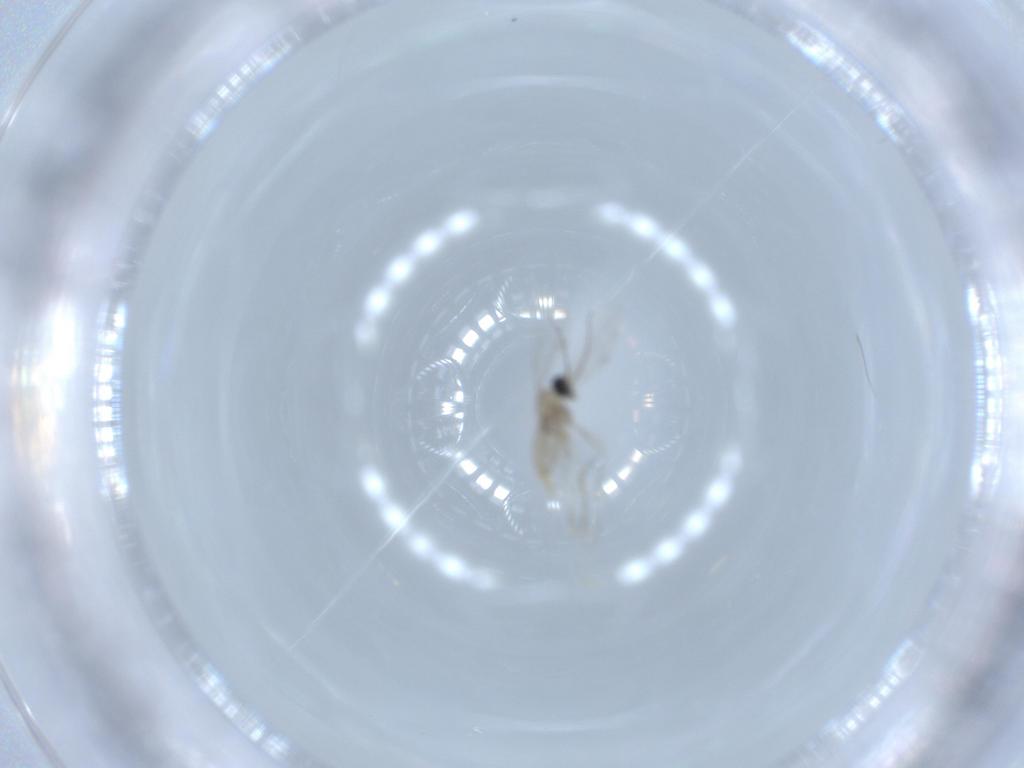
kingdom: Animalia
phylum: Arthropoda
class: Insecta
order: Diptera
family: Cecidomyiidae
